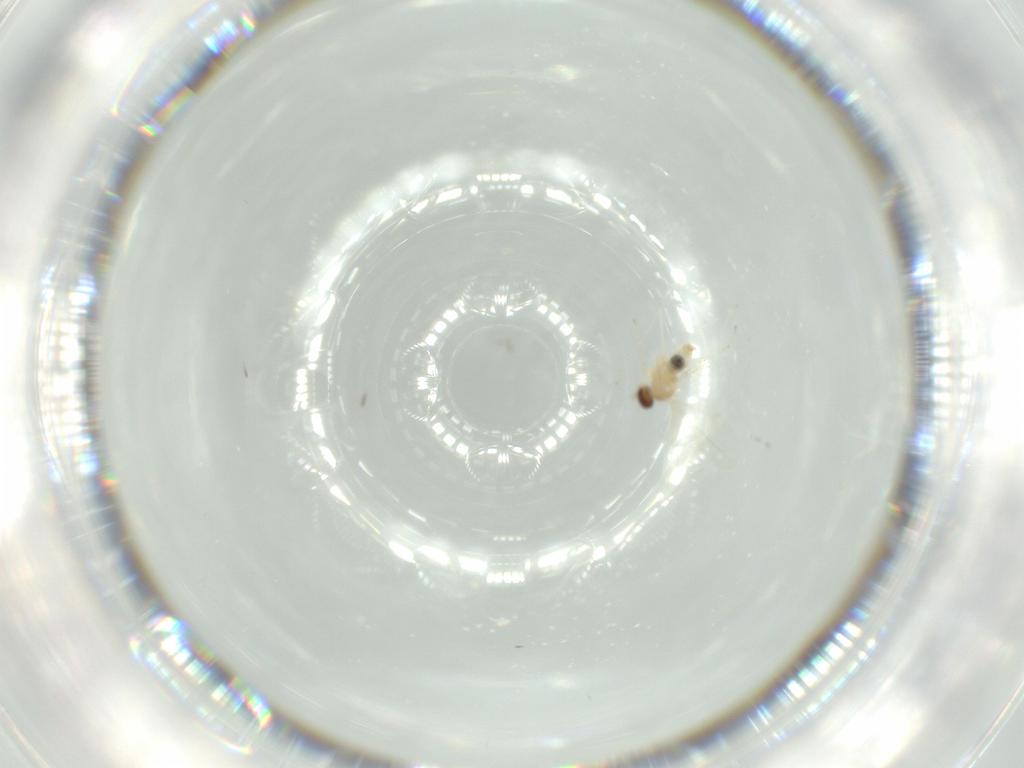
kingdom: Animalia
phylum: Arthropoda
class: Insecta
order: Diptera
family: Cecidomyiidae
